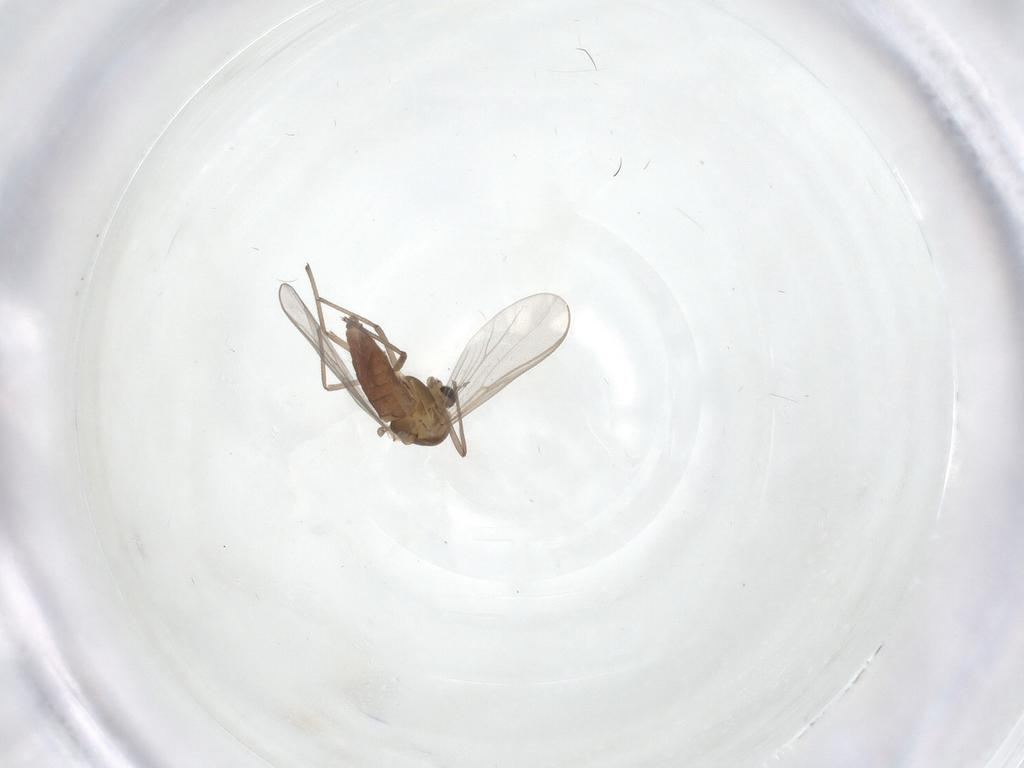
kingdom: Animalia
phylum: Arthropoda
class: Insecta
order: Diptera
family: Chironomidae
